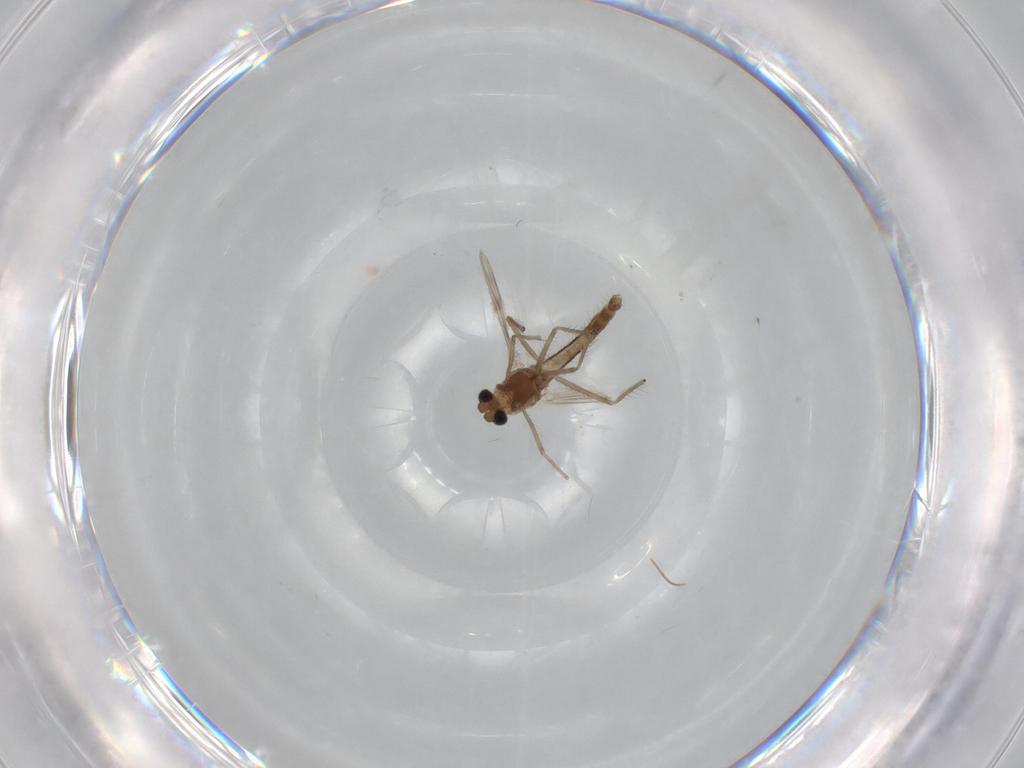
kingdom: Animalia
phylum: Arthropoda
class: Insecta
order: Diptera
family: Chironomidae
